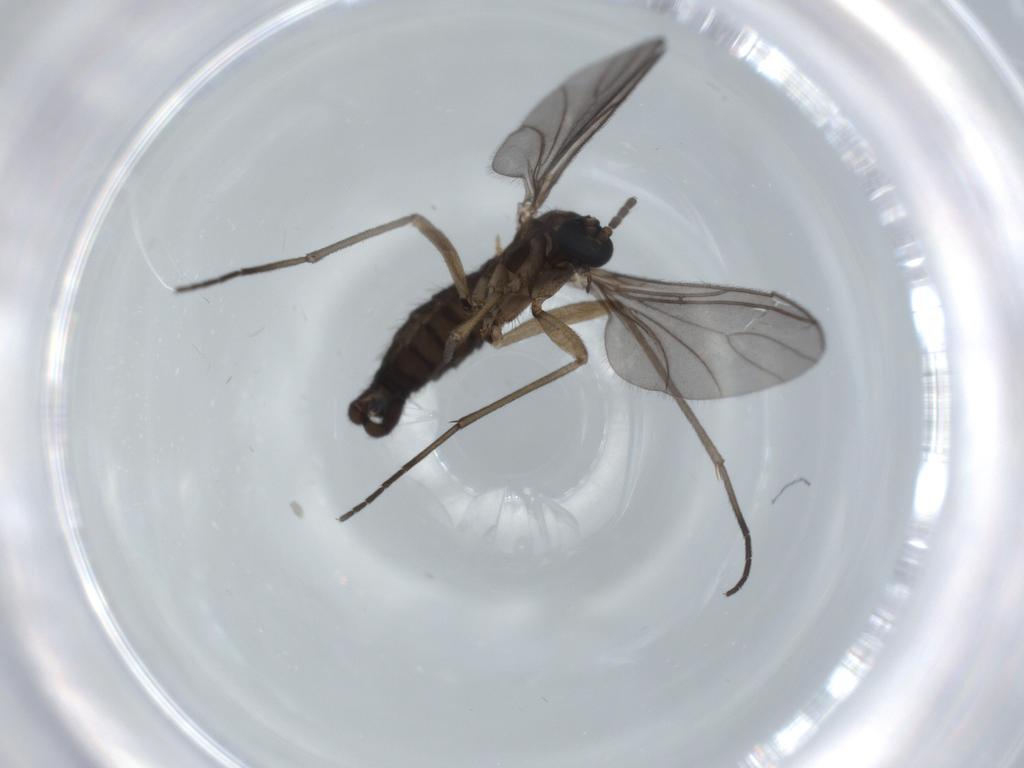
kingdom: Animalia
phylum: Arthropoda
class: Insecta
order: Diptera
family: Sciaridae
